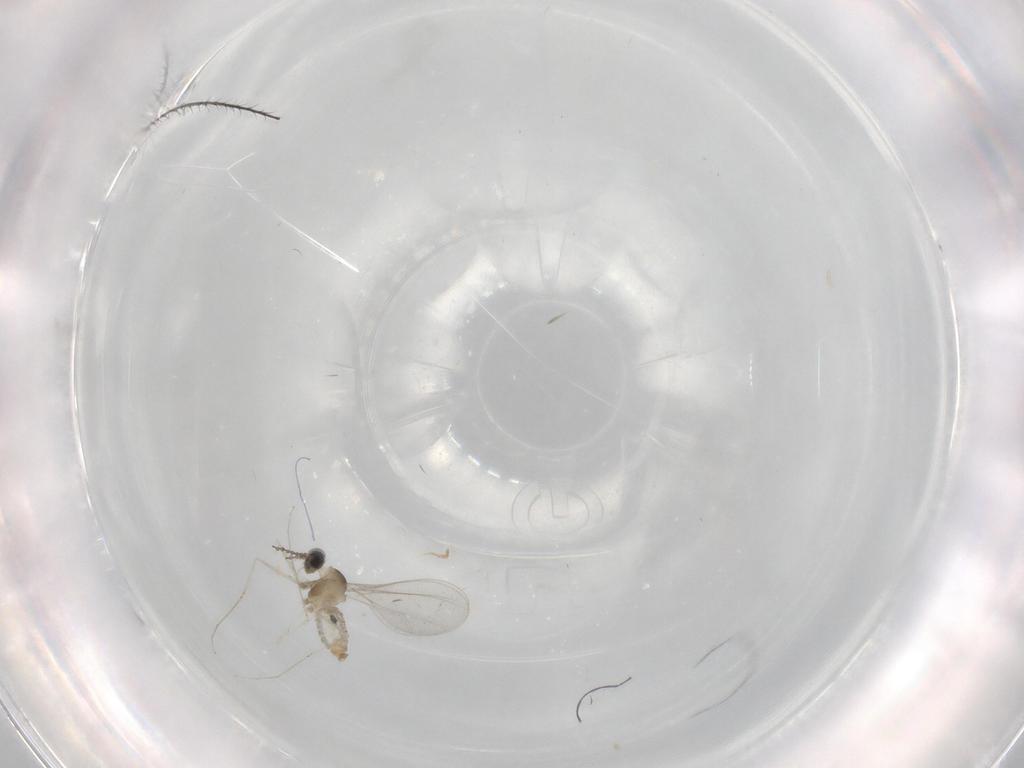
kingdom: Animalia
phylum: Arthropoda
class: Insecta
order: Diptera
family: Cecidomyiidae
